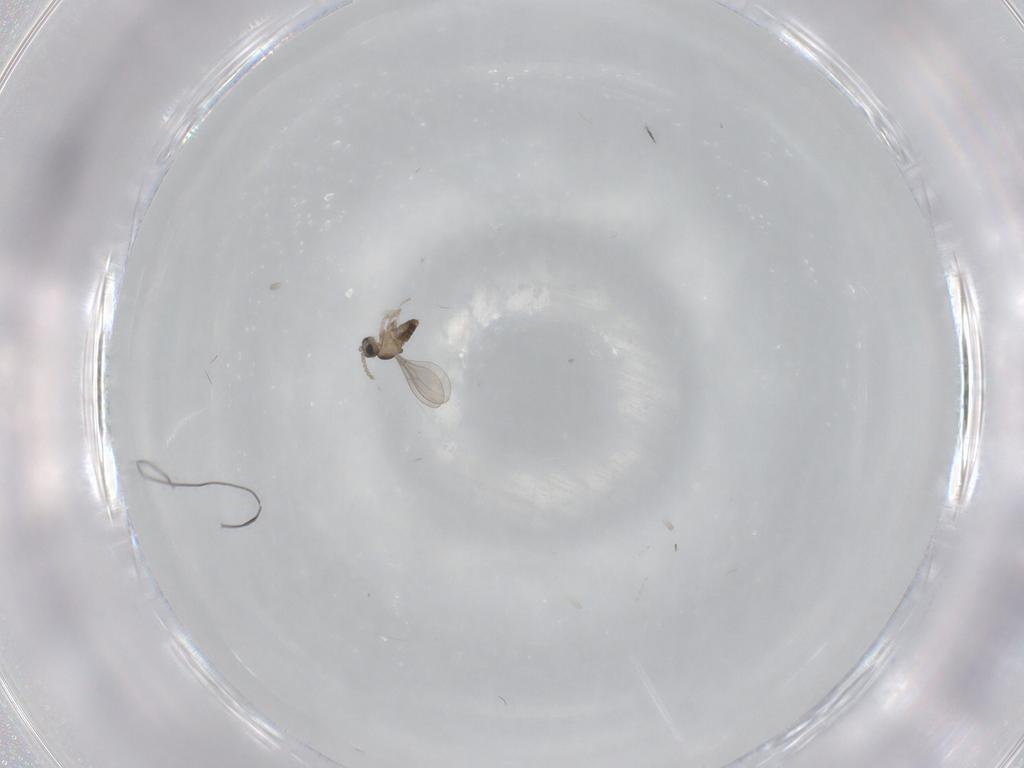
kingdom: Animalia
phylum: Arthropoda
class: Insecta
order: Diptera
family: Cecidomyiidae
